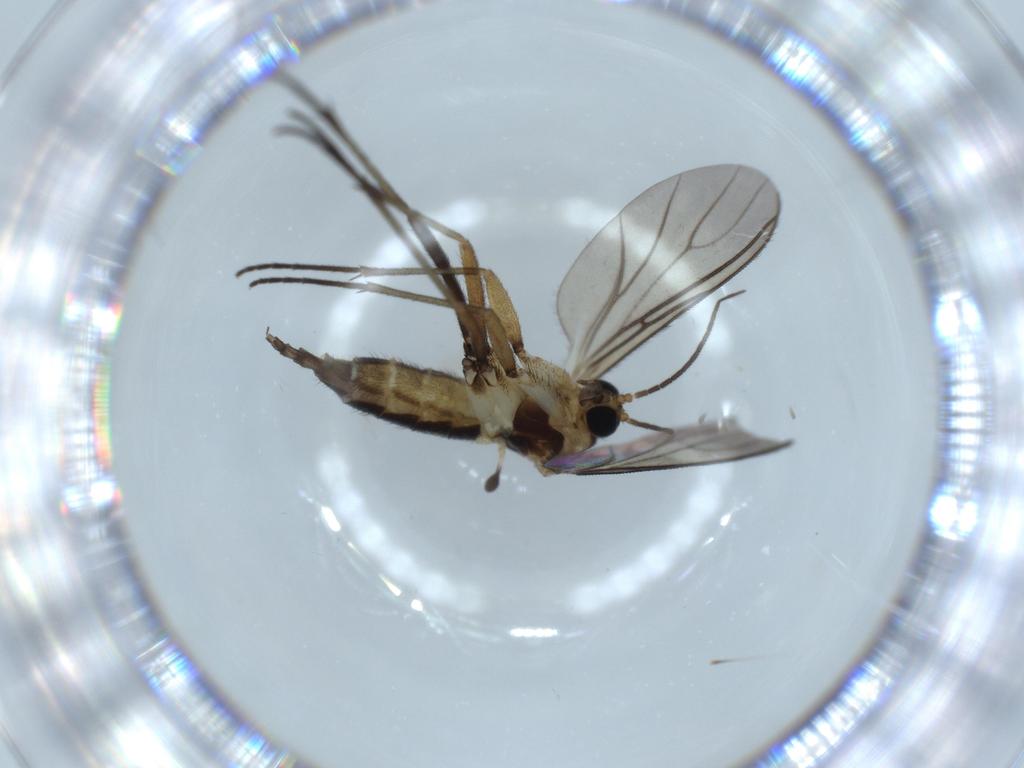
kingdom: Animalia
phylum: Arthropoda
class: Insecta
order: Diptera
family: Sciaridae
